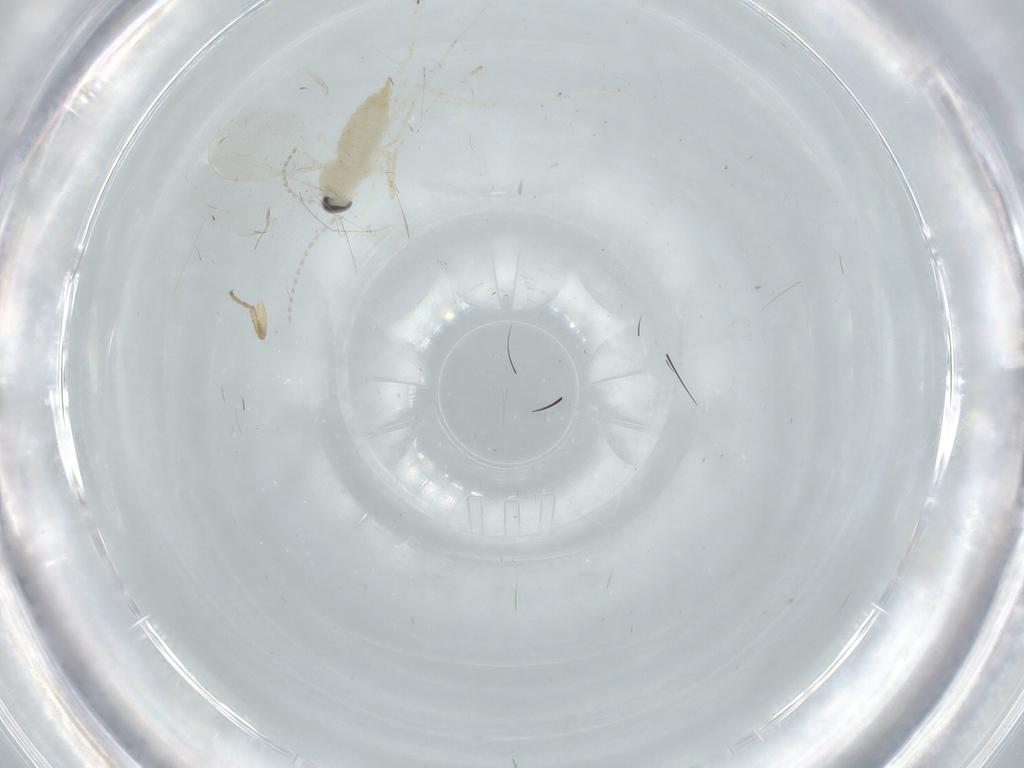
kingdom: Animalia
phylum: Arthropoda
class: Insecta
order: Diptera
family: Cecidomyiidae
